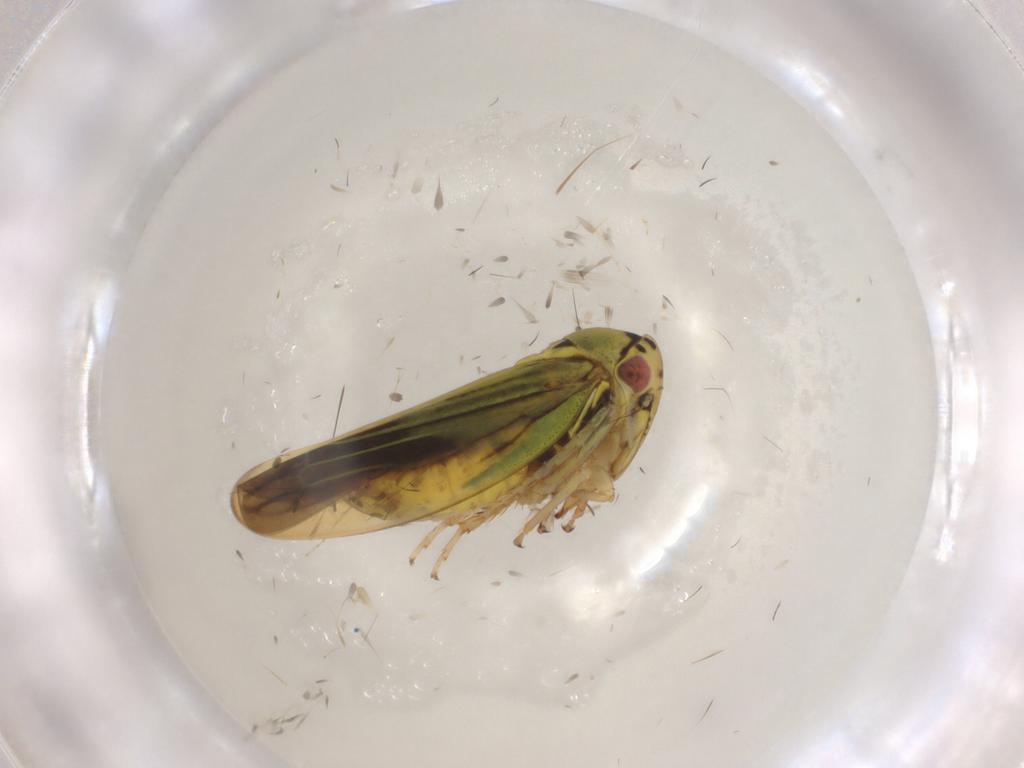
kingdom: Animalia
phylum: Arthropoda
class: Insecta
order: Hemiptera
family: Cicadellidae
